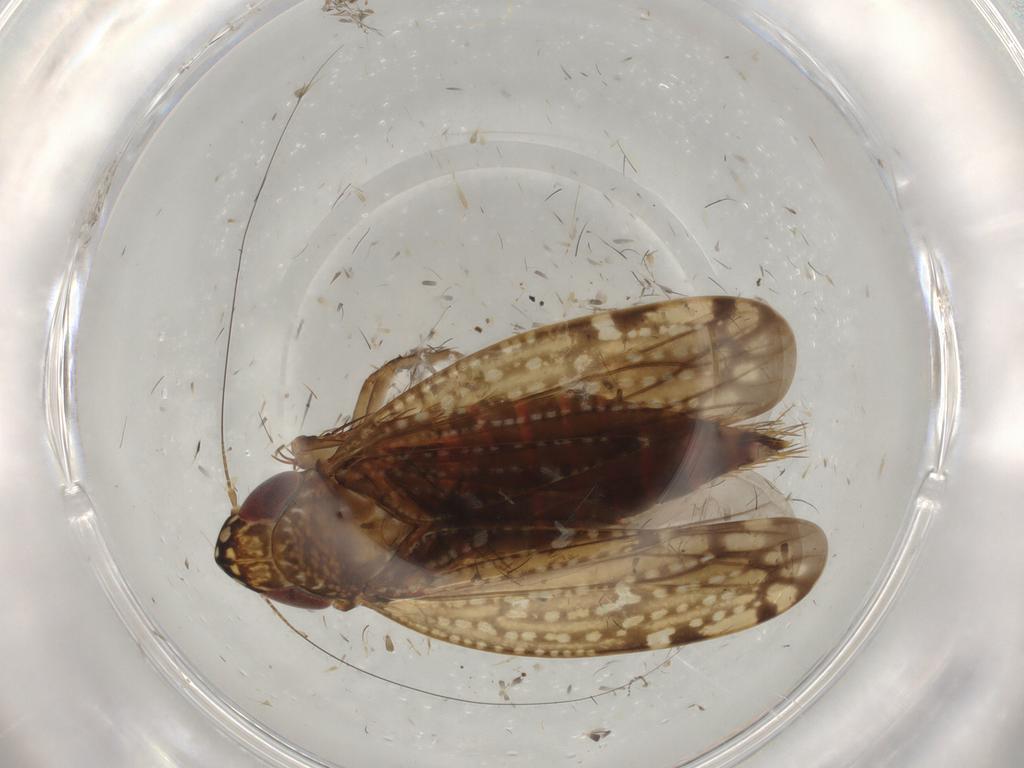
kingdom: Animalia
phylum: Arthropoda
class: Insecta
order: Hemiptera
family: Cicadellidae
